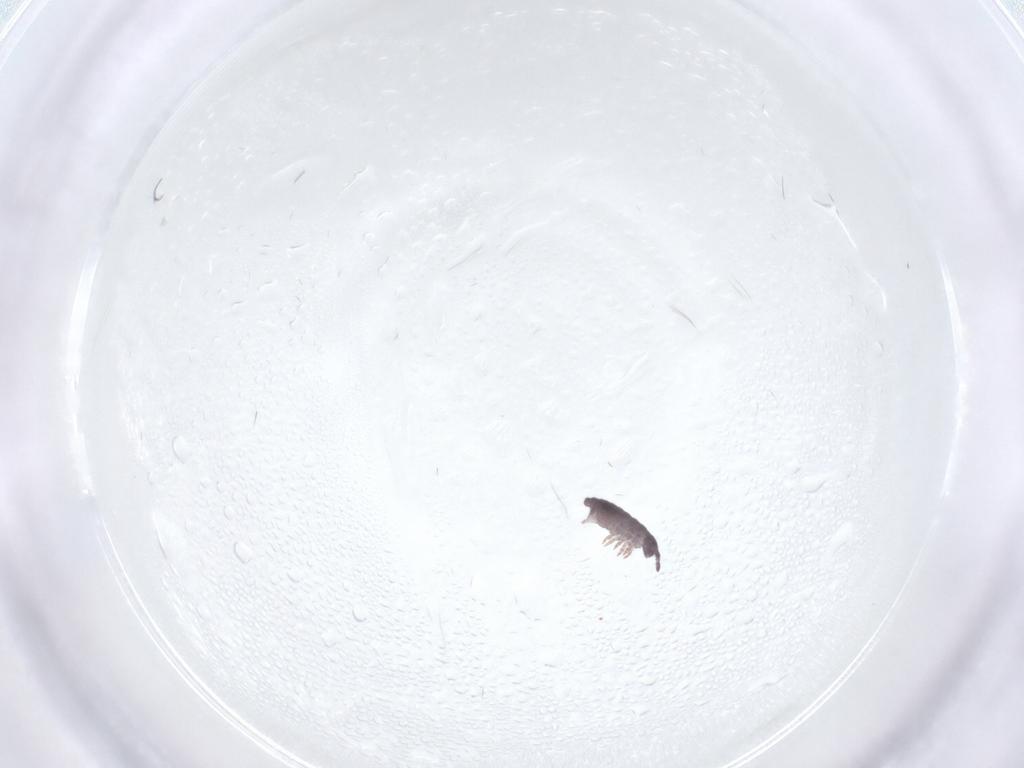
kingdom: Animalia
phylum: Arthropoda
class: Collembola
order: Poduromorpha
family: Hypogastruridae
